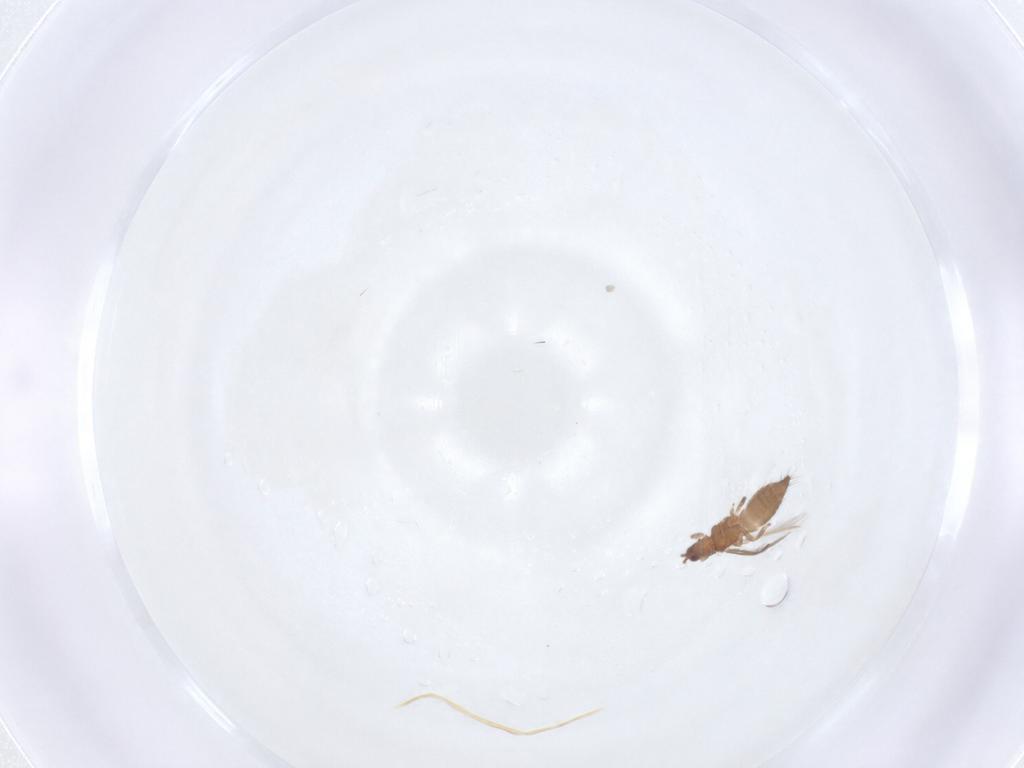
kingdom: Animalia
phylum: Arthropoda
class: Insecta
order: Thysanoptera
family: Thripidae
